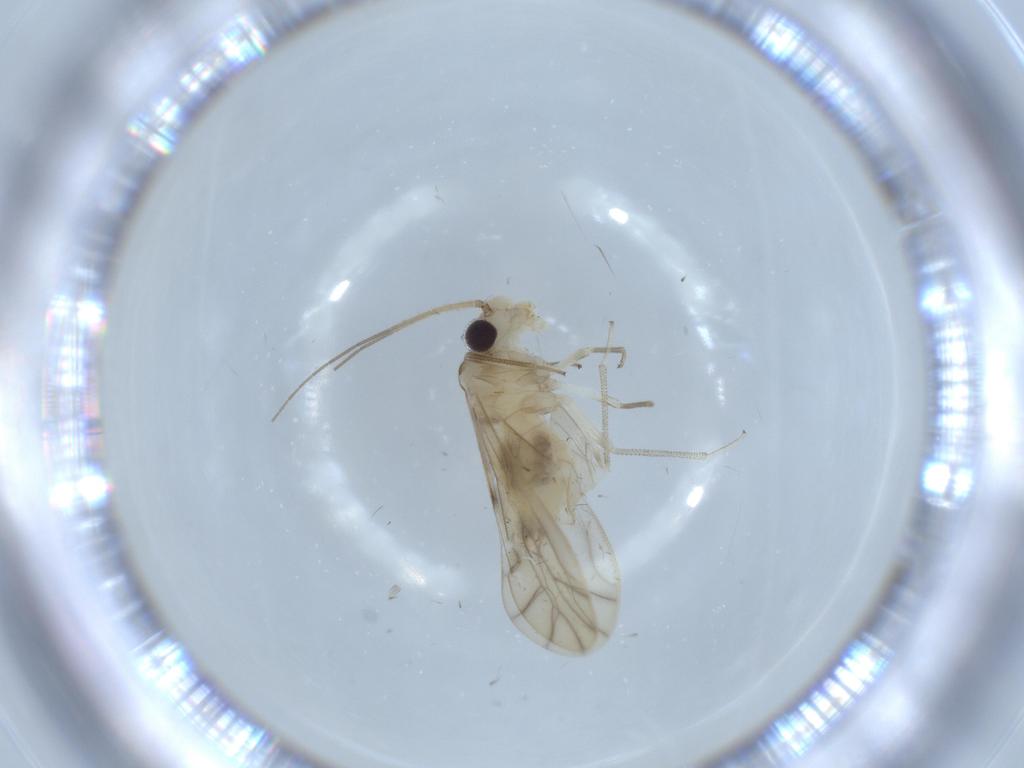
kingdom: Animalia
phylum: Arthropoda
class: Insecta
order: Psocodea
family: Caeciliusidae
